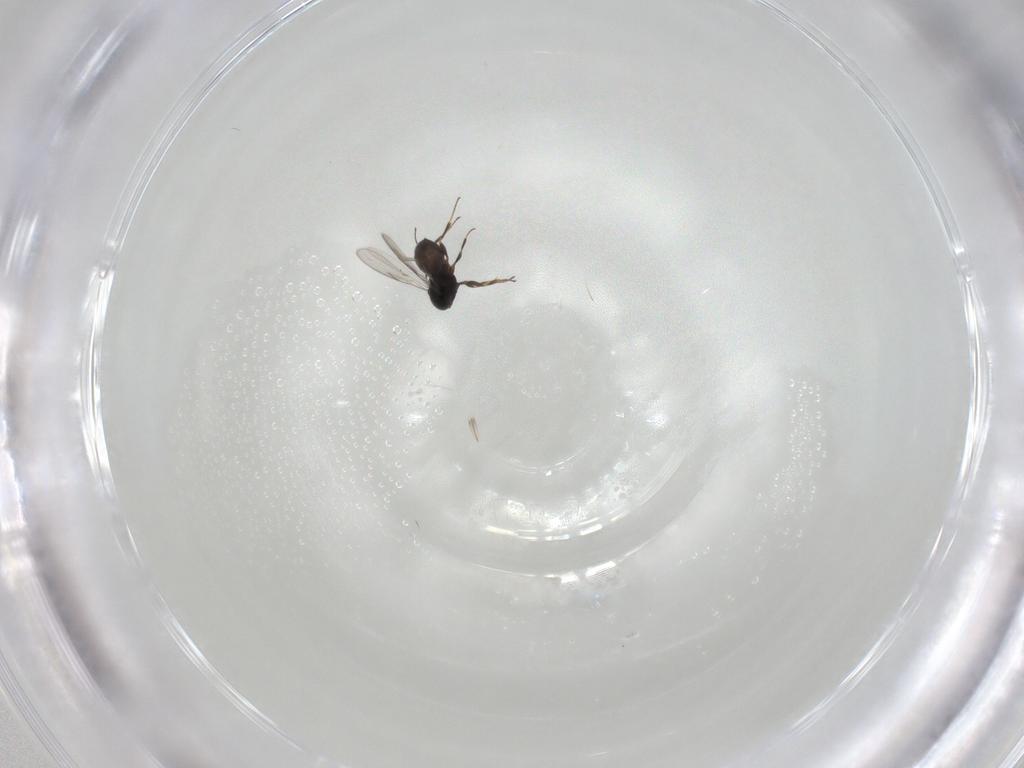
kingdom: Animalia
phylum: Arthropoda
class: Insecta
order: Hymenoptera
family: Scelionidae
